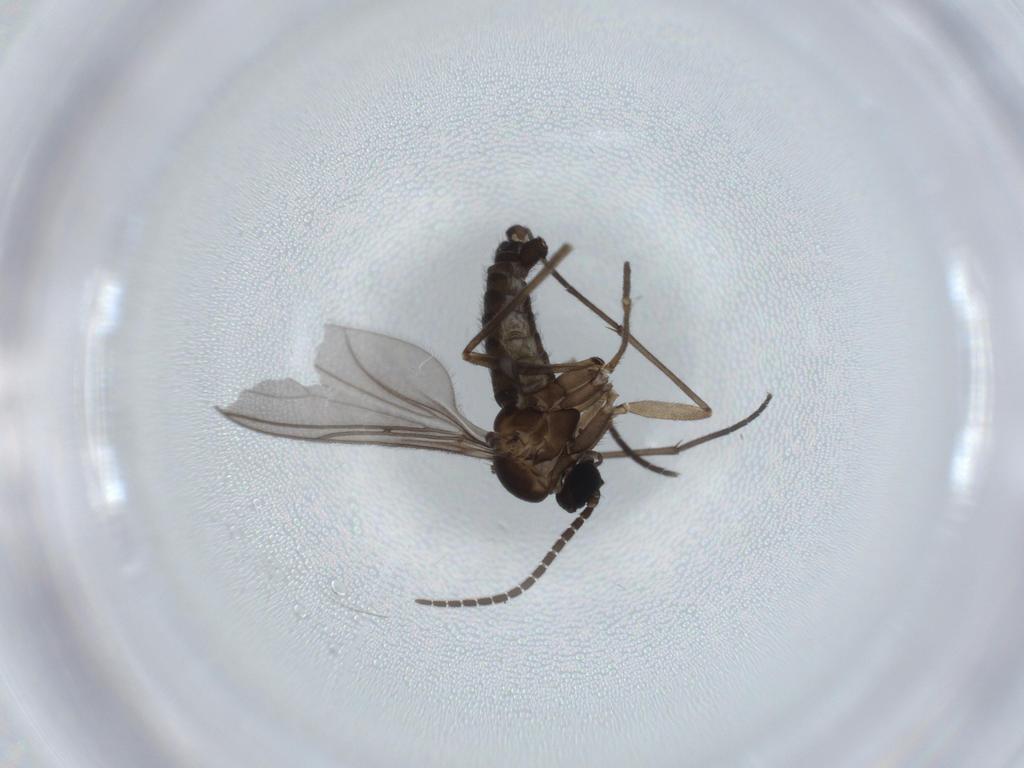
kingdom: Animalia
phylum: Arthropoda
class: Insecta
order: Diptera
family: Sciaridae
